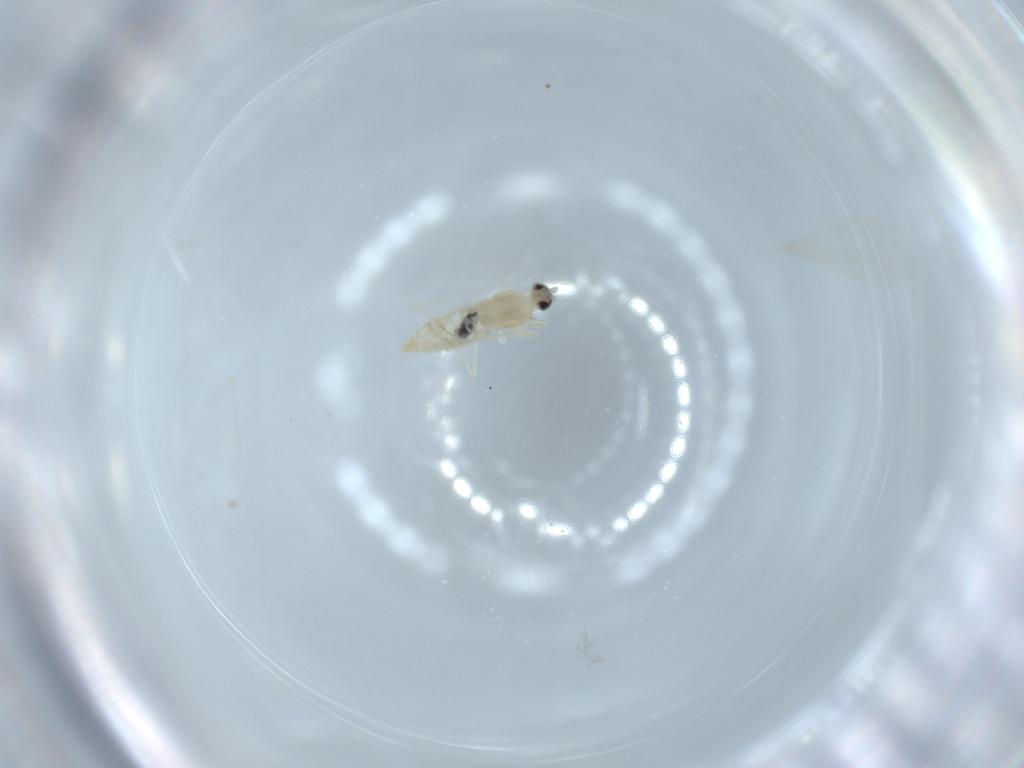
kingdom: Animalia
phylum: Arthropoda
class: Insecta
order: Diptera
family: Cecidomyiidae
